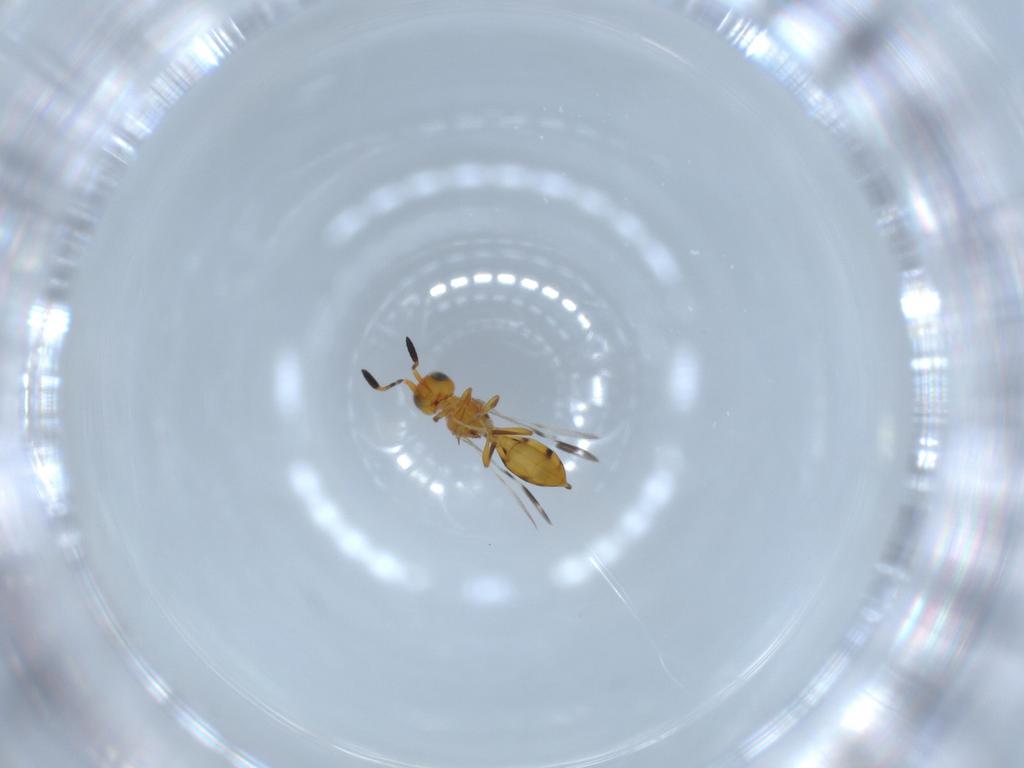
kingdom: Animalia
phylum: Arthropoda
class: Insecta
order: Hymenoptera
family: Scelionidae
